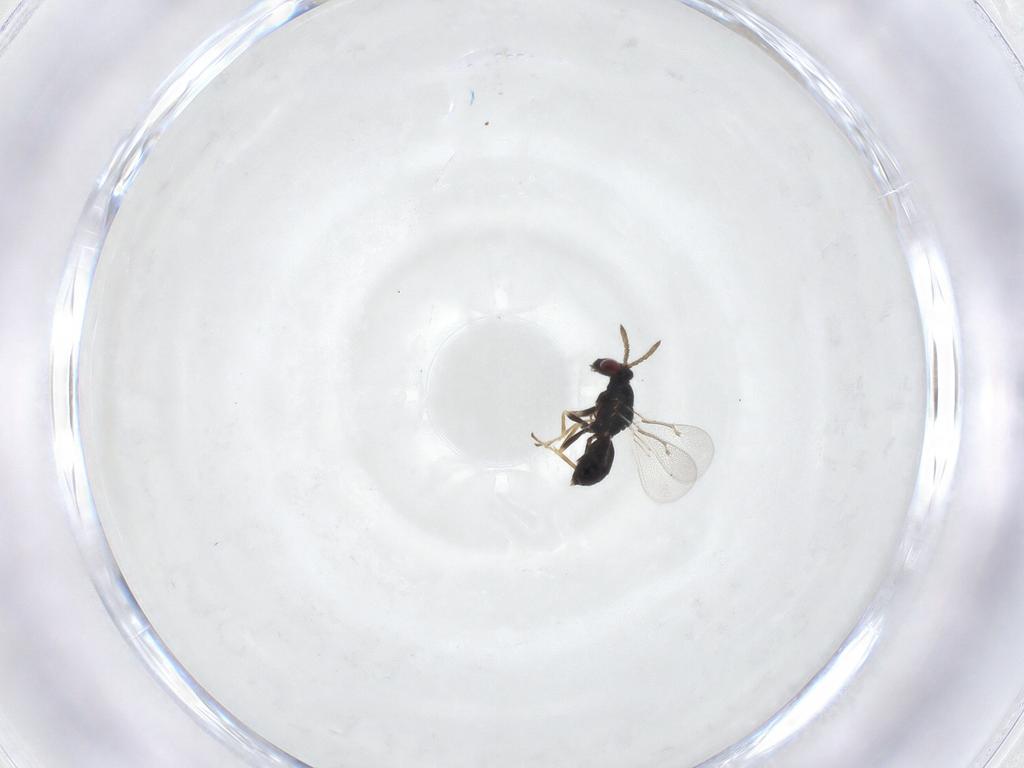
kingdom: Animalia
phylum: Arthropoda
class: Insecta
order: Hymenoptera
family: Eulophidae
